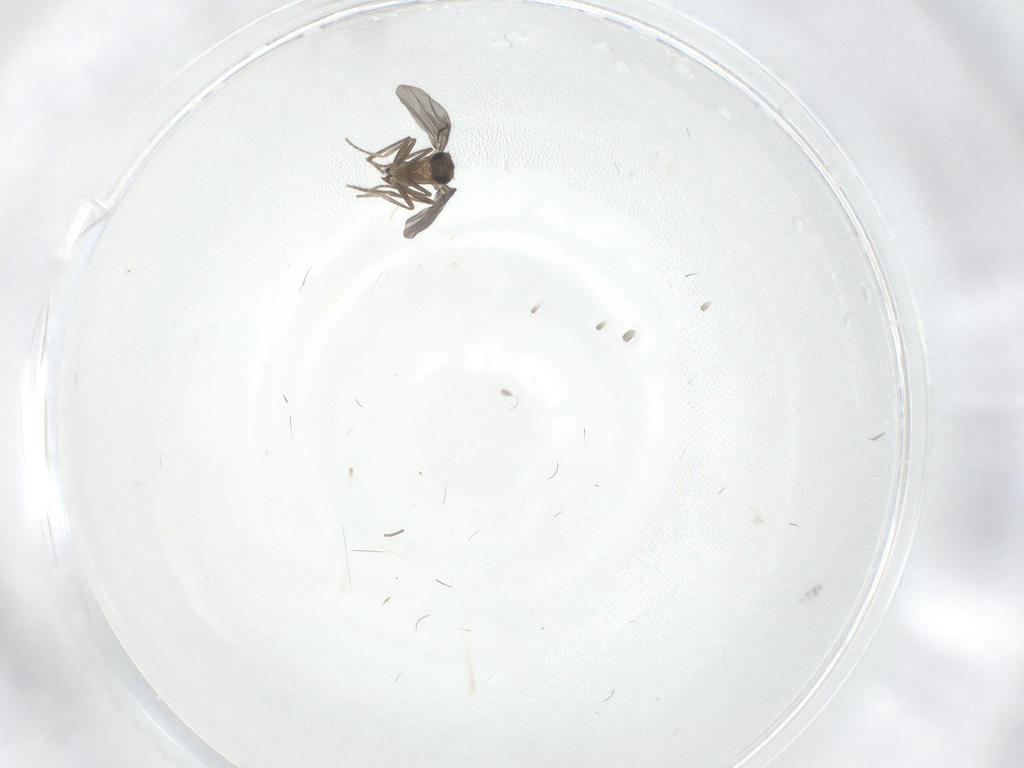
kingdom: Animalia
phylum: Arthropoda
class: Insecta
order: Diptera
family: Phoridae
